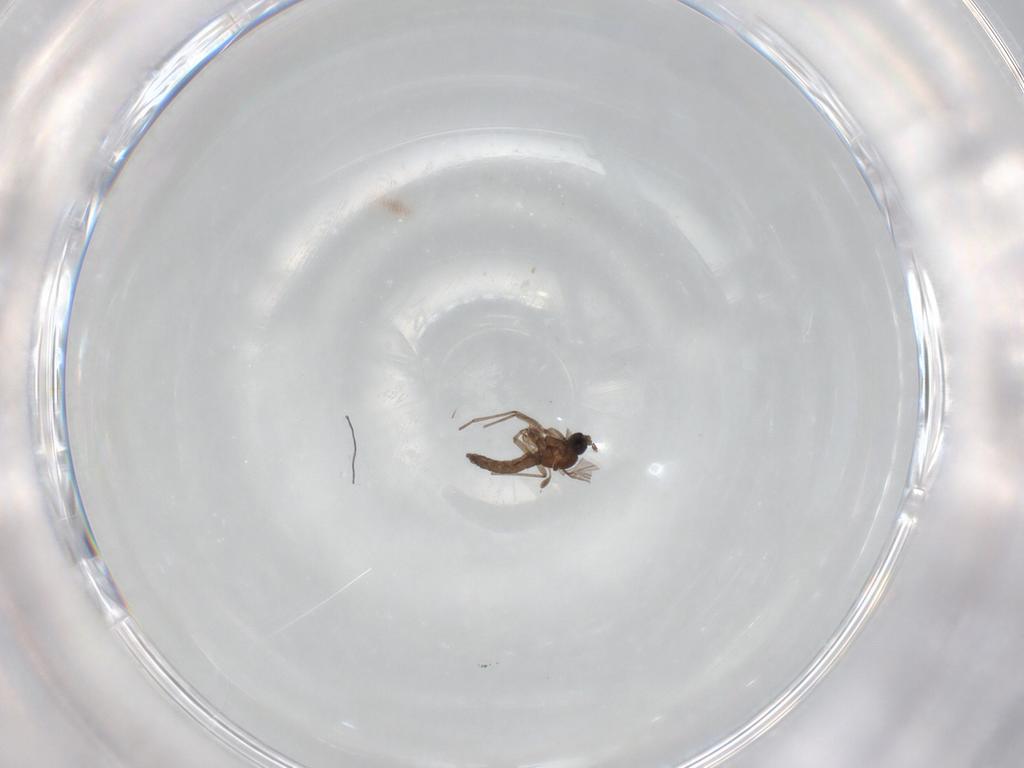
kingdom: Animalia
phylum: Arthropoda
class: Insecta
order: Diptera
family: Sciaridae
